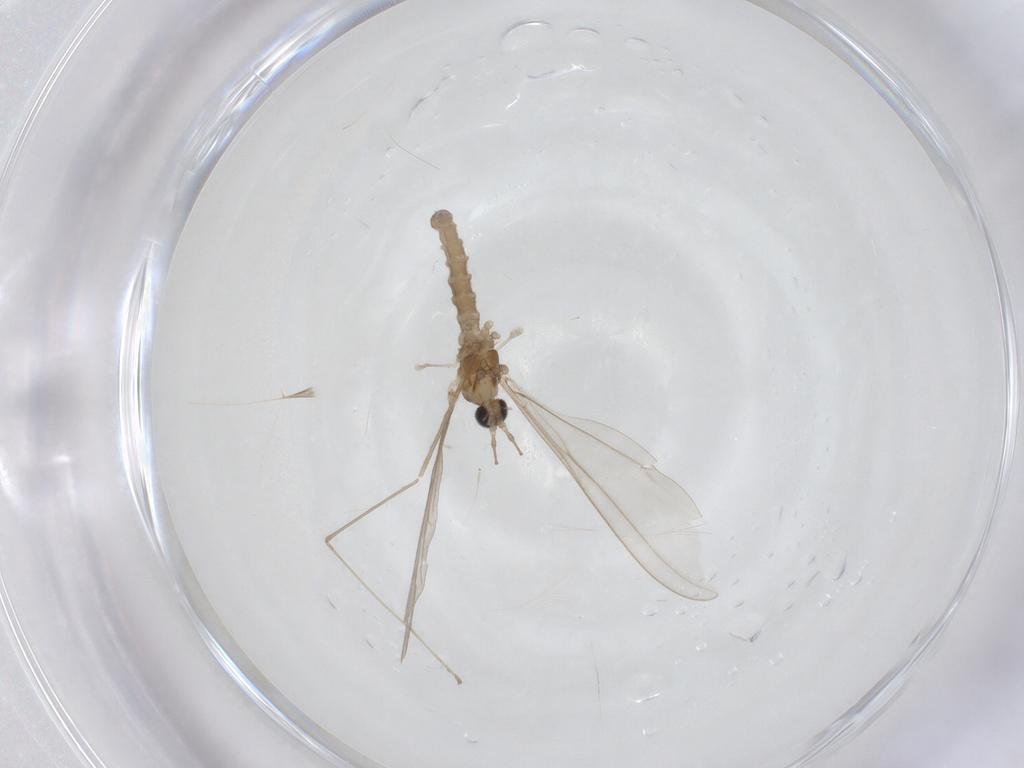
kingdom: Animalia
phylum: Arthropoda
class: Insecta
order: Diptera
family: Cecidomyiidae
